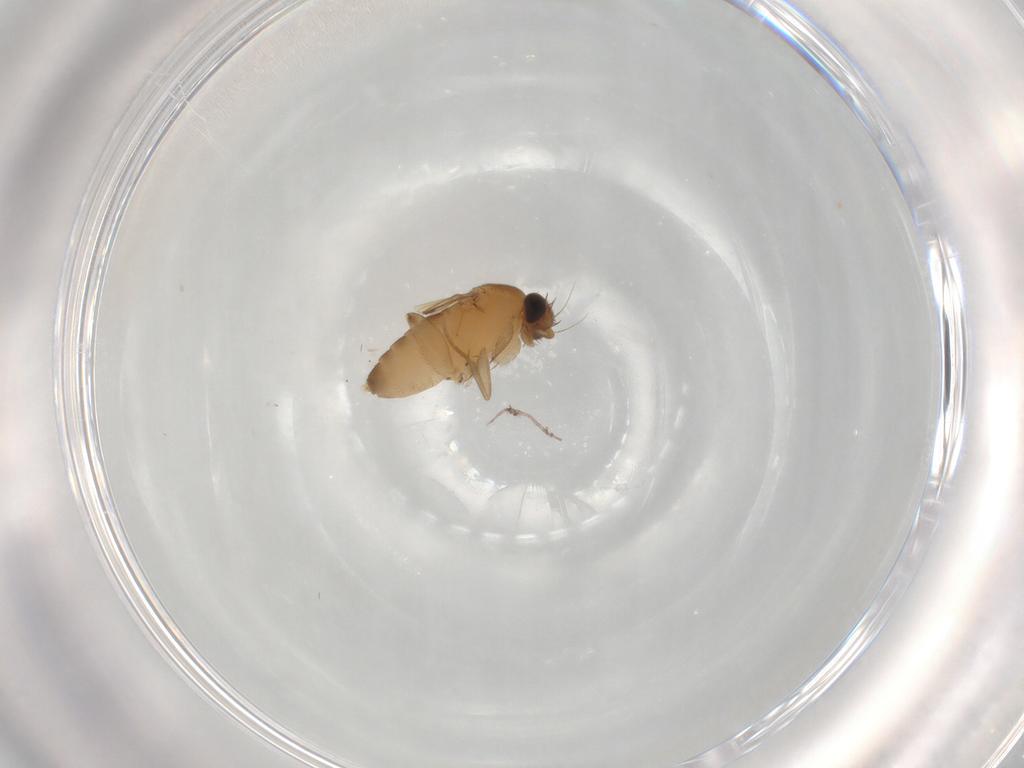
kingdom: Animalia
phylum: Arthropoda
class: Insecta
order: Diptera
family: Phoridae
